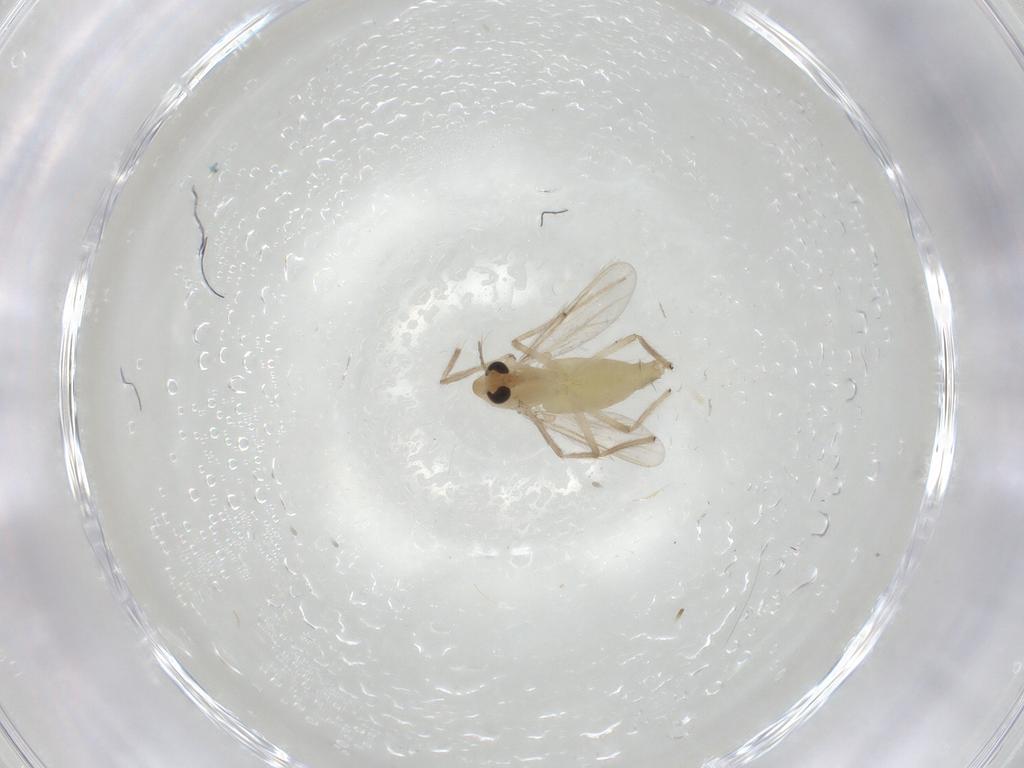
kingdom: Animalia
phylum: Arthropoda
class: Insecta
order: Diptera
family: Chironomidae
